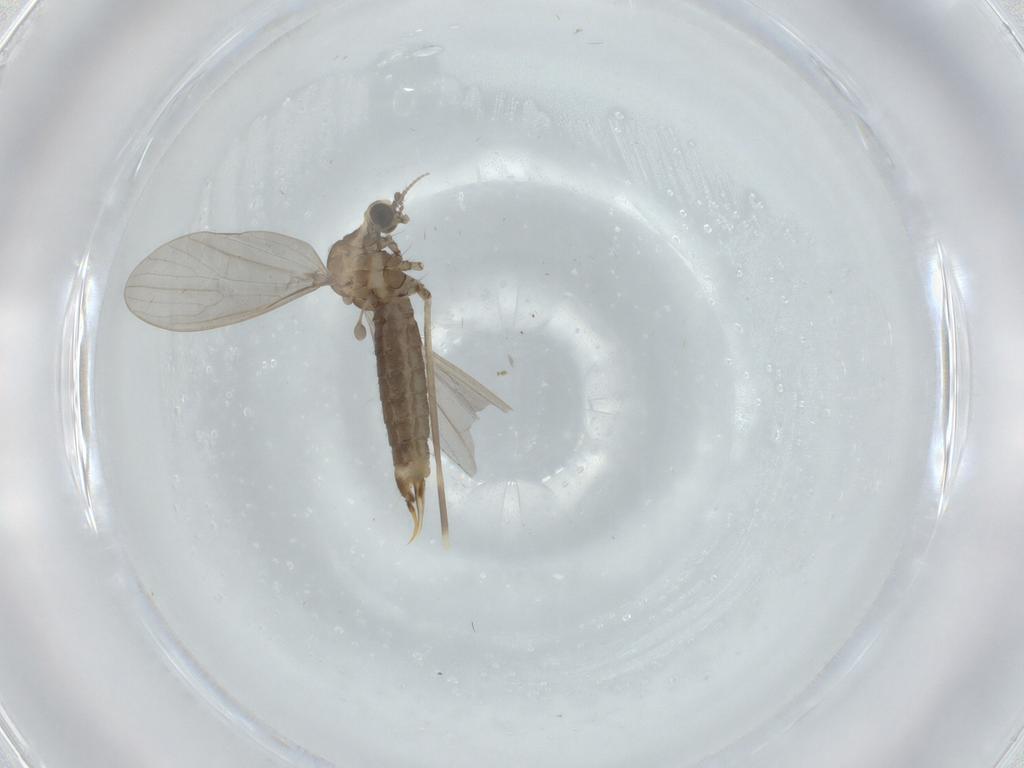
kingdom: Animalia
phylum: Arthropoda
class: Insecta
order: Diptera
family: Limoniidae
